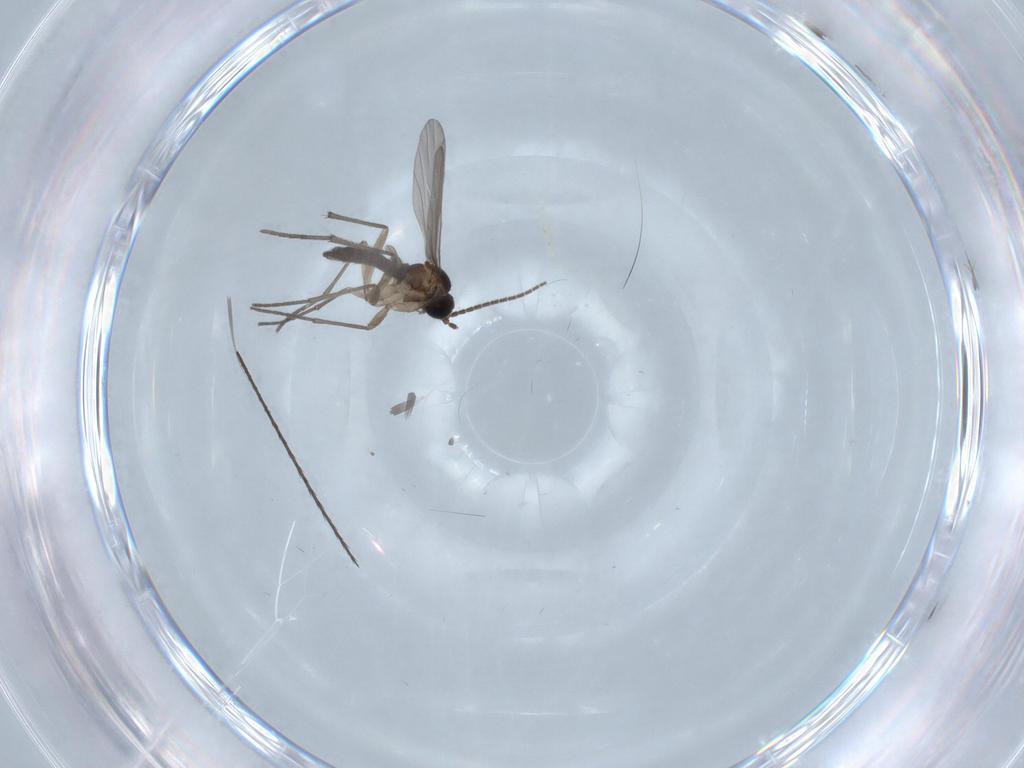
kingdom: Animalia
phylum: Arthropoda
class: Insecta
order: Diptera
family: Sciaridae
